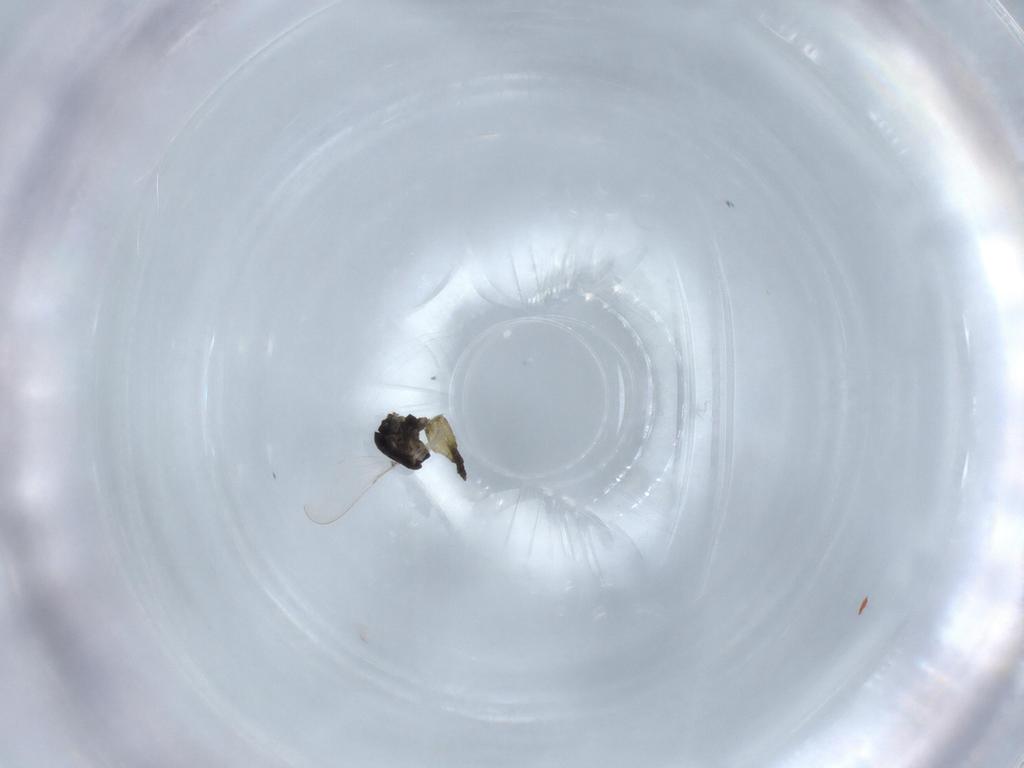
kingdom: Animalia
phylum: Arthropoda
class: Insecta
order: Diptera
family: Chironomidae
